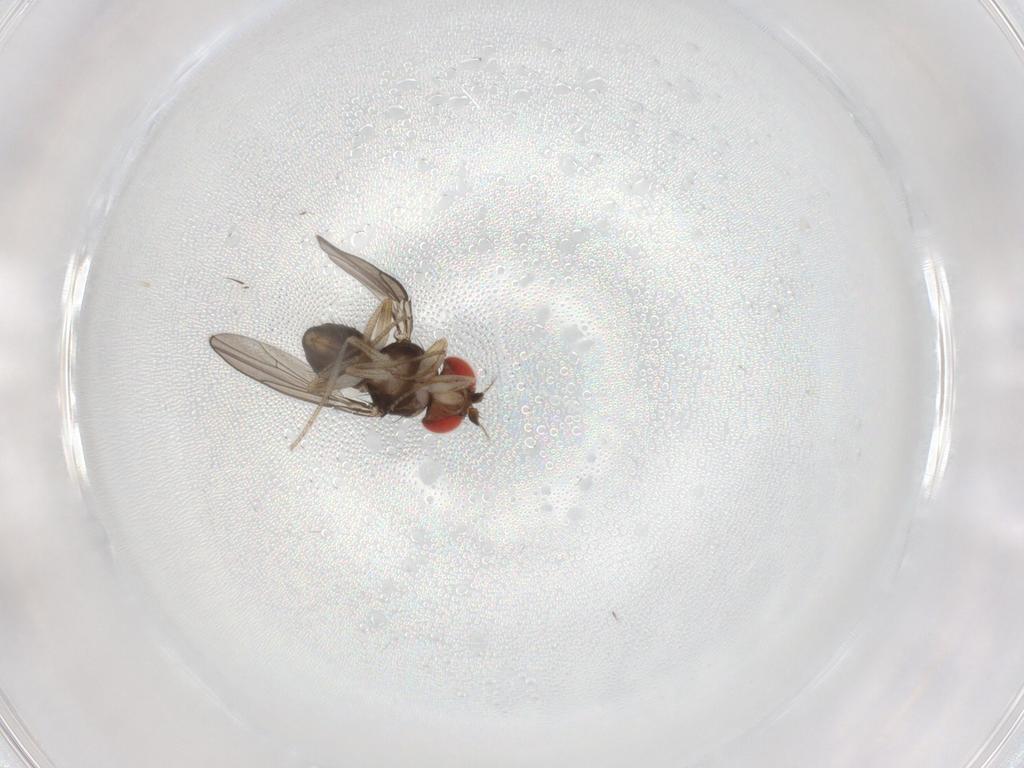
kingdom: Animalia
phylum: Arthropoda
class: Insecta
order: Diptera
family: Drosophilidae
